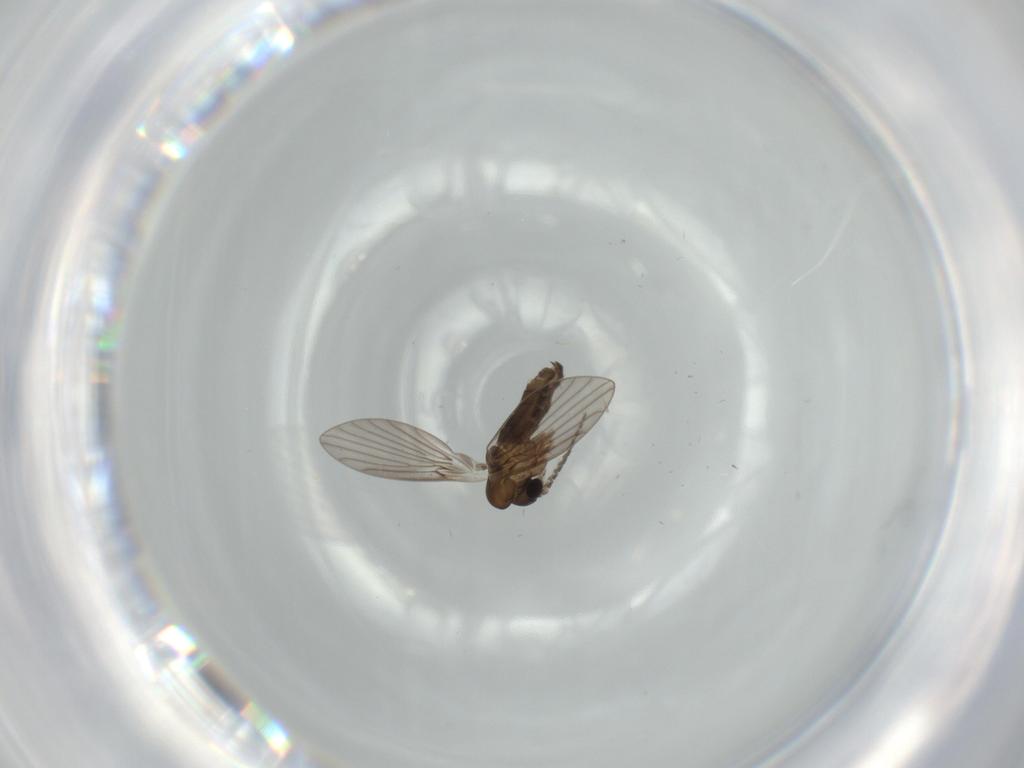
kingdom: Animalia
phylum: Arthropoda
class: Insecta
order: Diptera
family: Psychodidae
